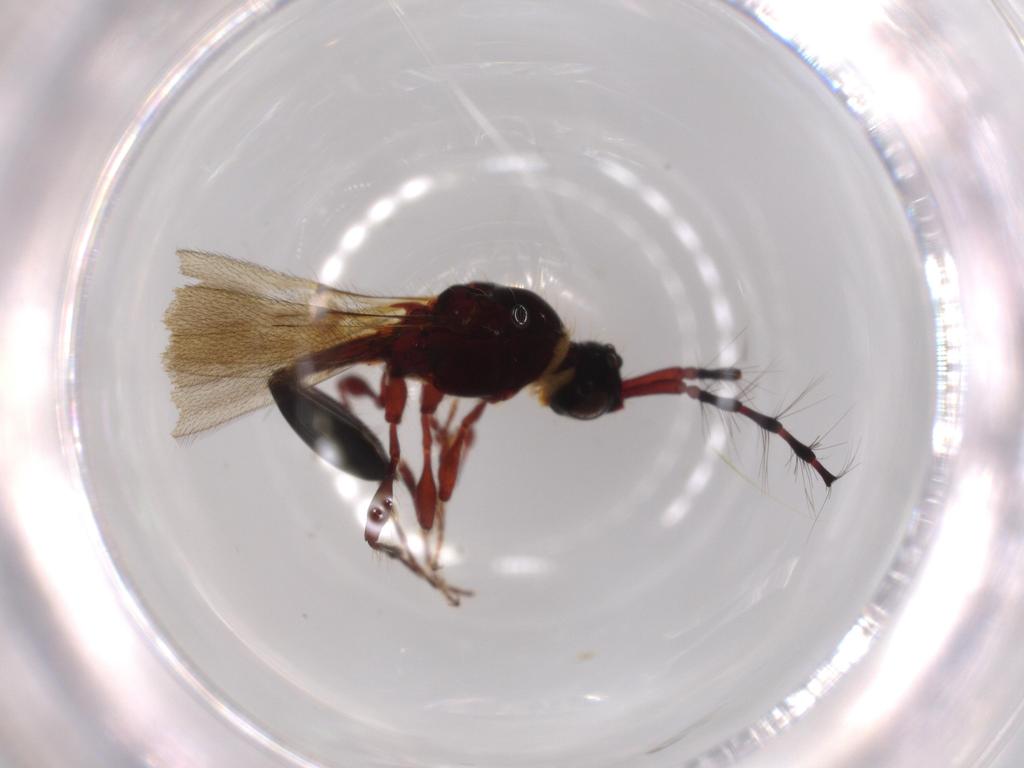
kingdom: Animalia
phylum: Arthropoda
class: Insecta
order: Hymenoptera
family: Diapriidae
